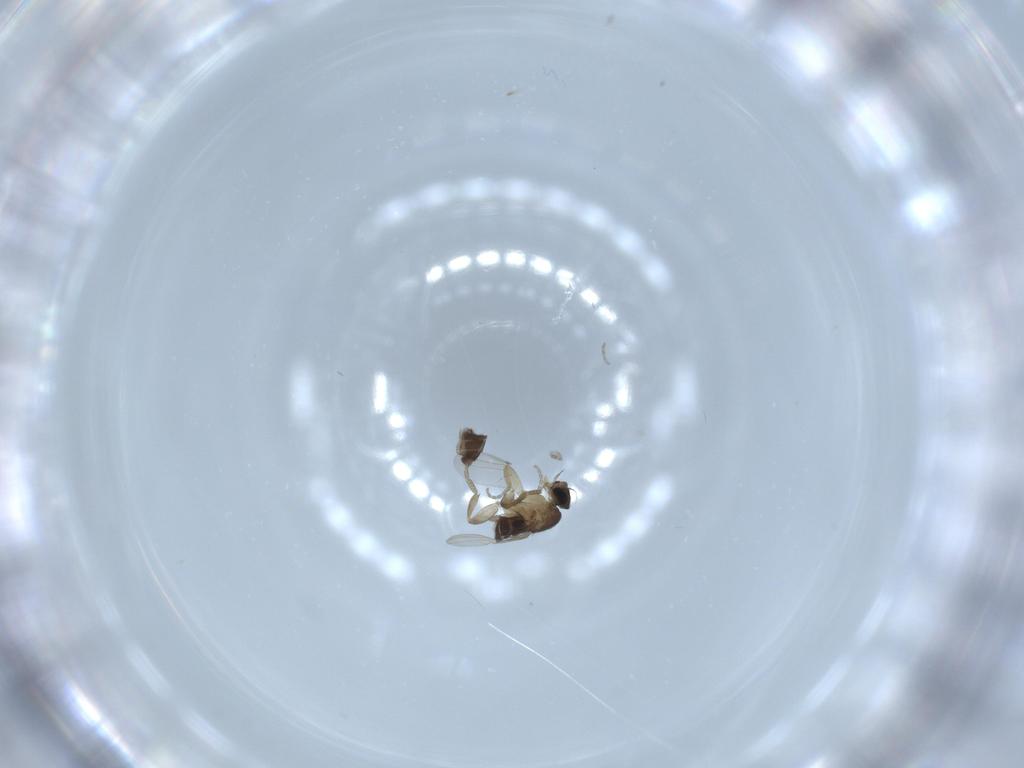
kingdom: Animalia
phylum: Arthropoda
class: Insecta
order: Diptera
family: Phoridae
